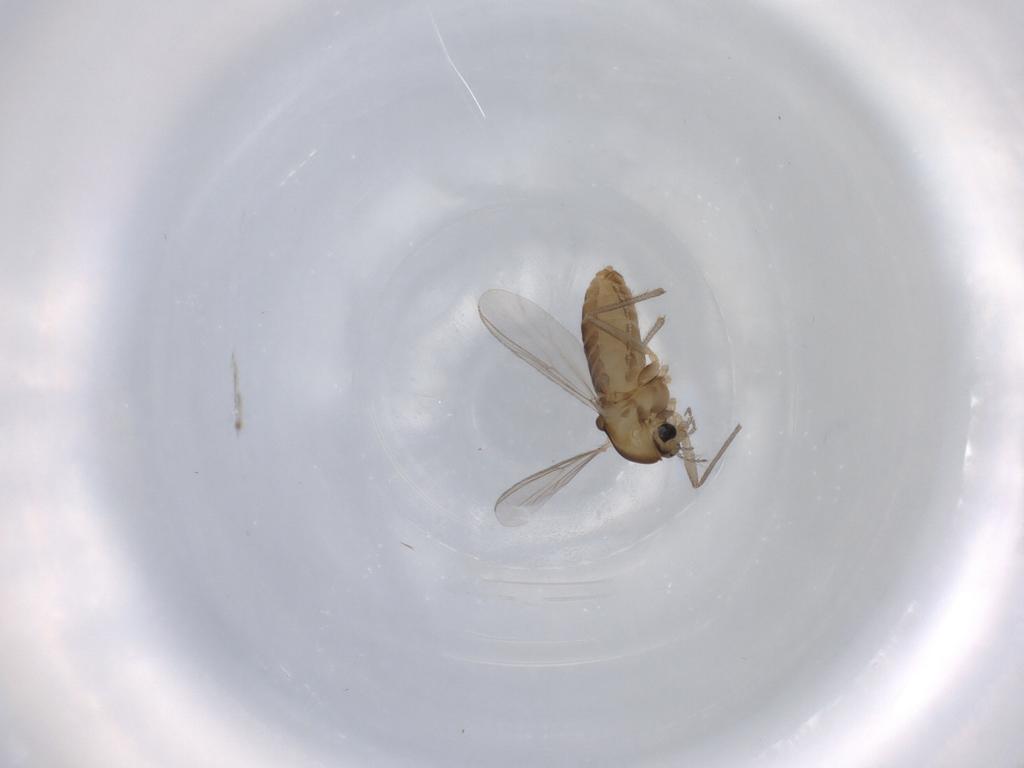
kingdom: Animalia
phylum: Arthropoda
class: Insecta
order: Diptera
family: Chironomidae
